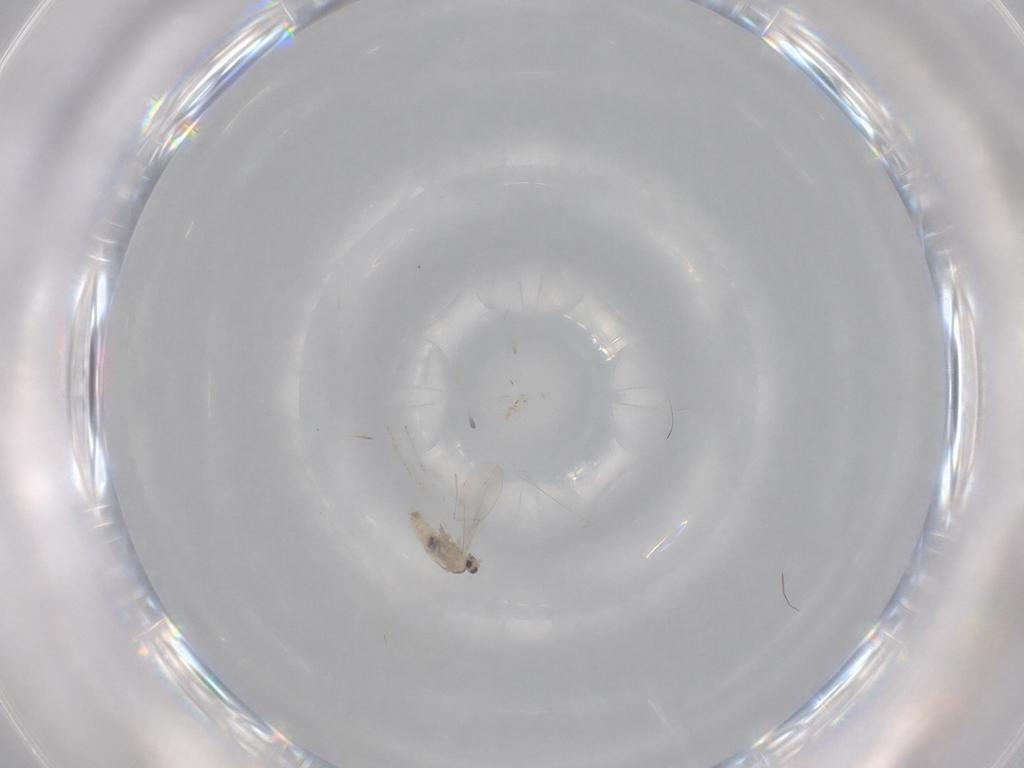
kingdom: Animalia
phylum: Arthropoda
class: Insecta
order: Diptera
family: Cecidomyiidae
